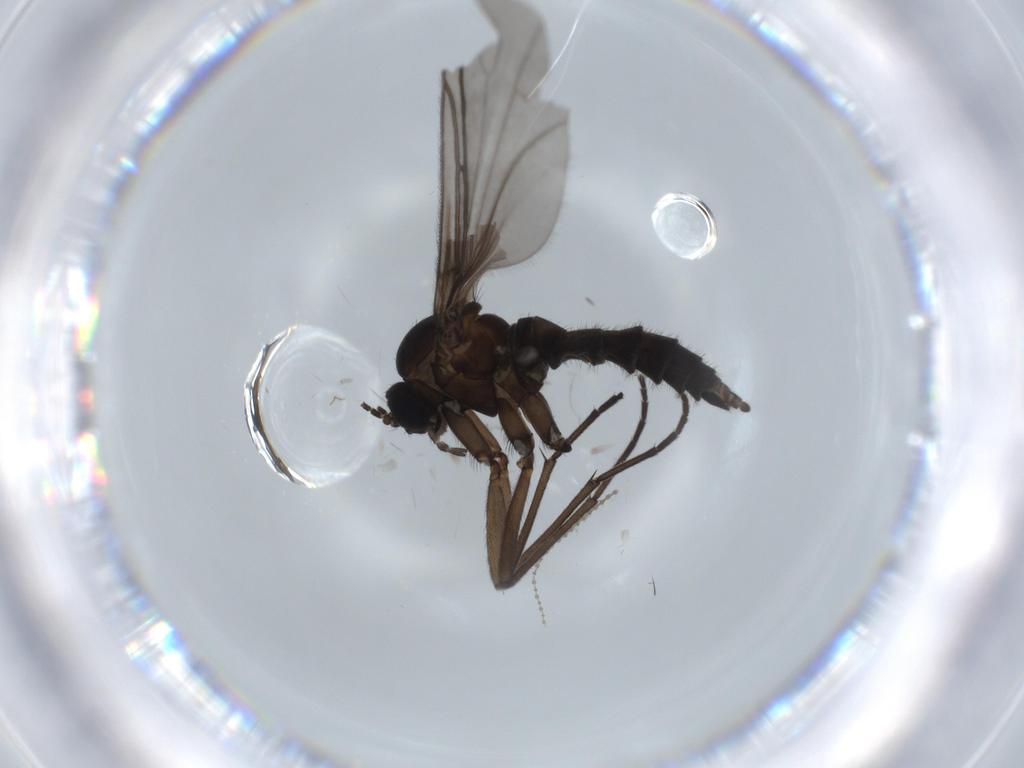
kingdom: Animalia
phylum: Arthropoda
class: Insecta
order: Diptera
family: Sciaridae
